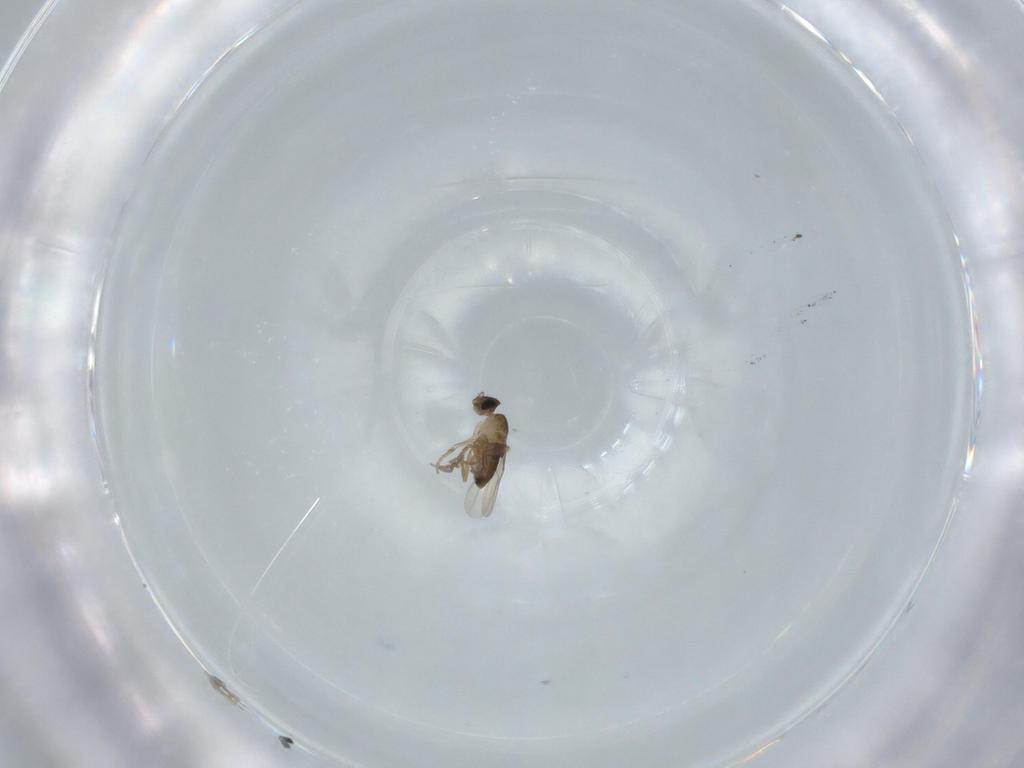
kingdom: Animalia
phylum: Arthropoda
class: Insecta
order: Diptera
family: Phoridae
